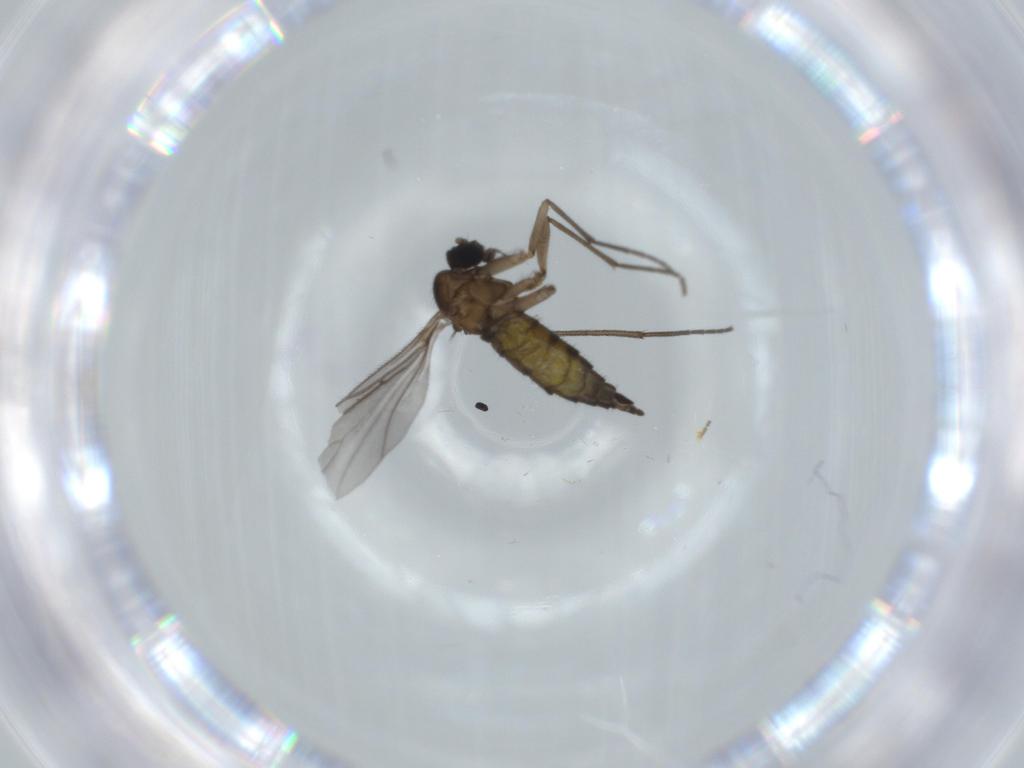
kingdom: Animalia
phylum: Arthropoda
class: Insecta
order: Diptera
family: Sciaridae
